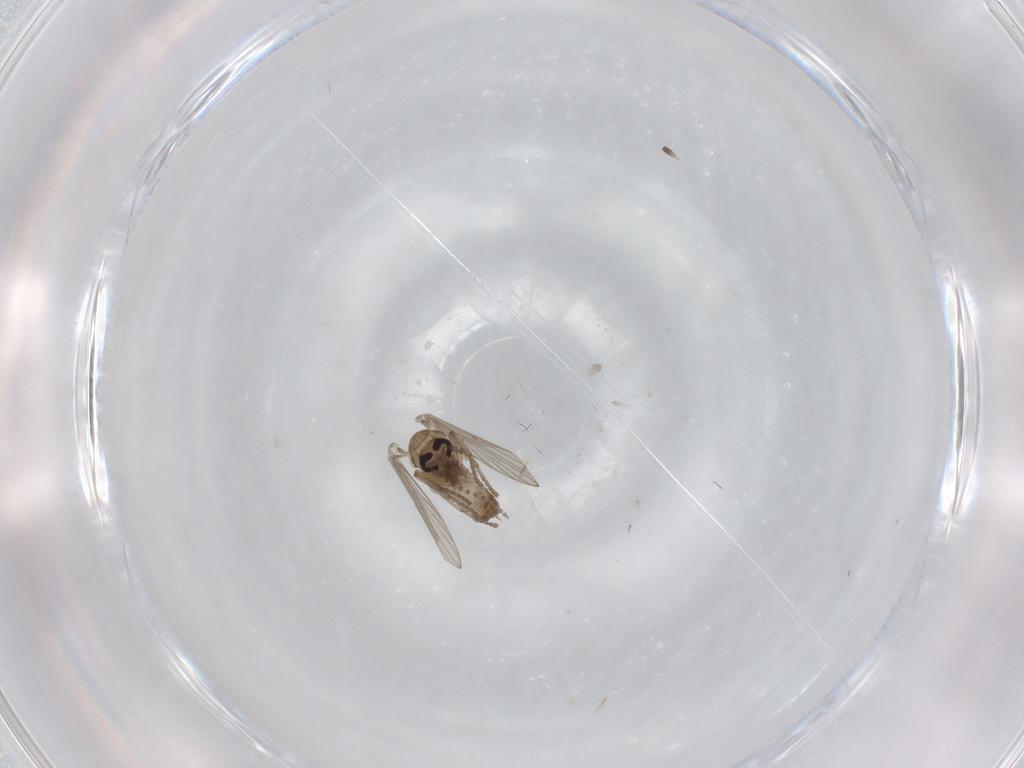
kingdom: Animalia
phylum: Arthropoda
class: Insecta
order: Diptera
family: Psychodidae
